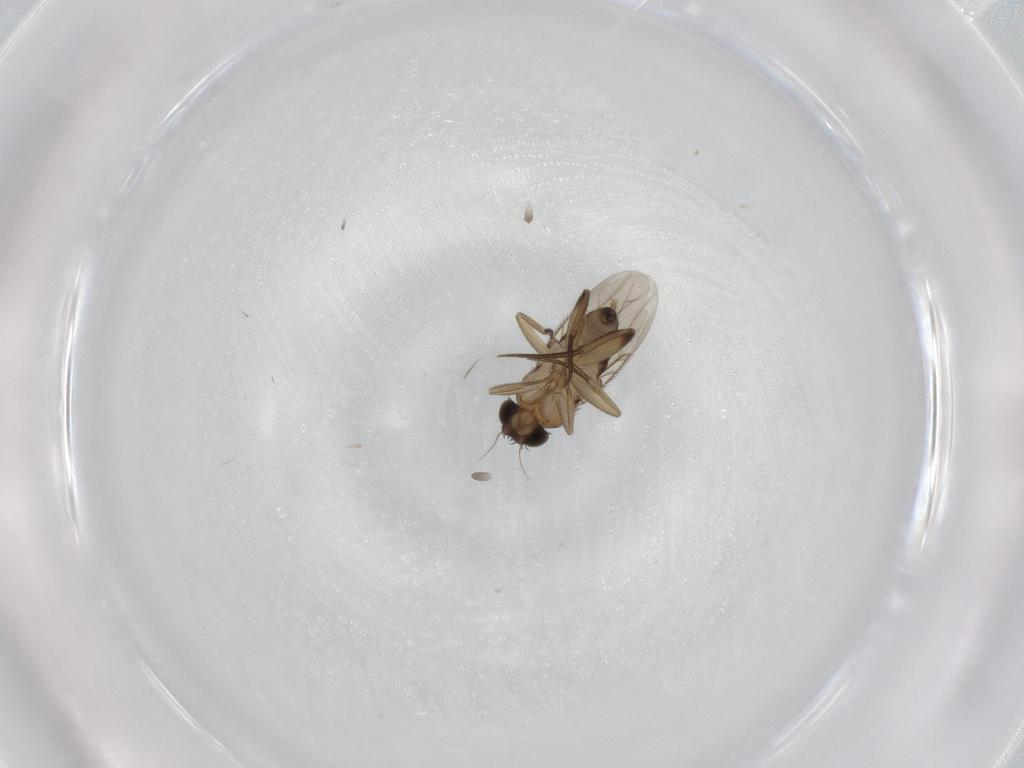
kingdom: Animalia
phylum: Arthropoda
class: Insecta
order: Diptera
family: Phoridae
